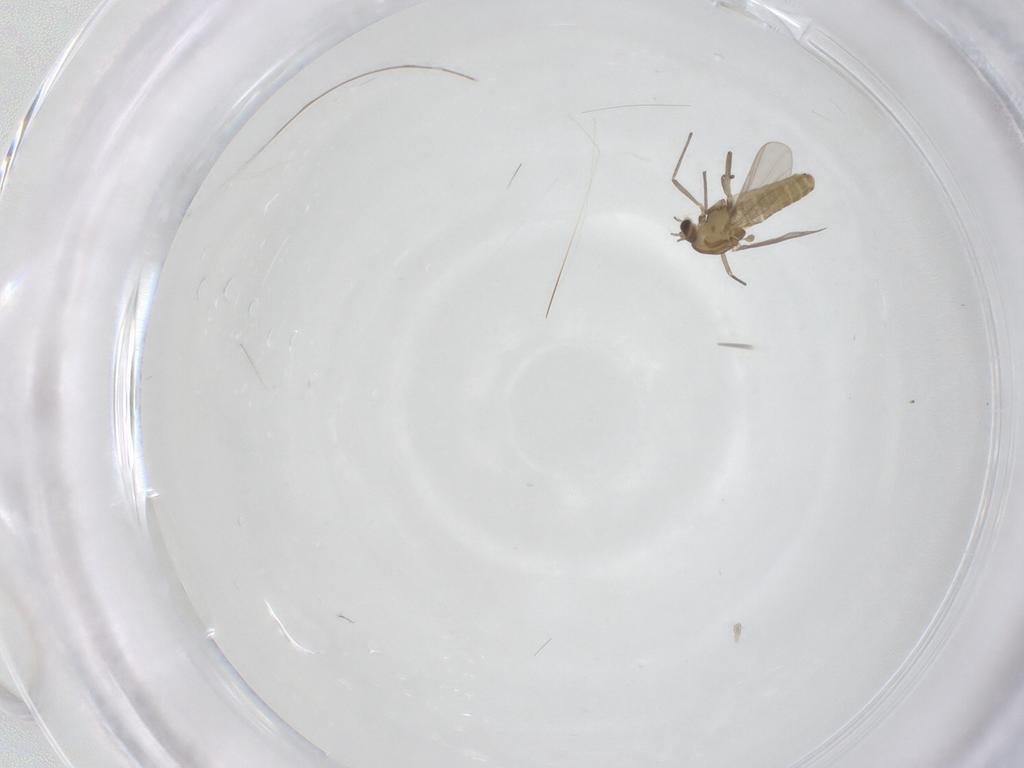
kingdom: Animalia
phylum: Arthropoda
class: Insecta
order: Diptera
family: Chironomidae
